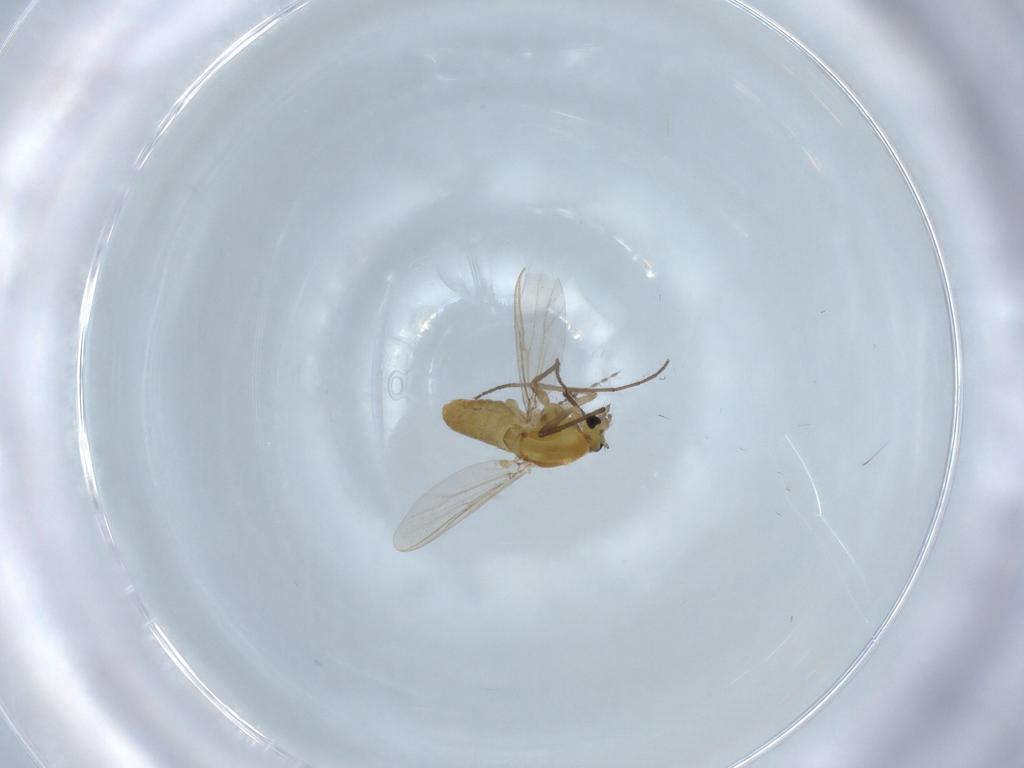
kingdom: Animalia
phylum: Arthropoda
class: Insecta
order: Diptera
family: Chironomidae
